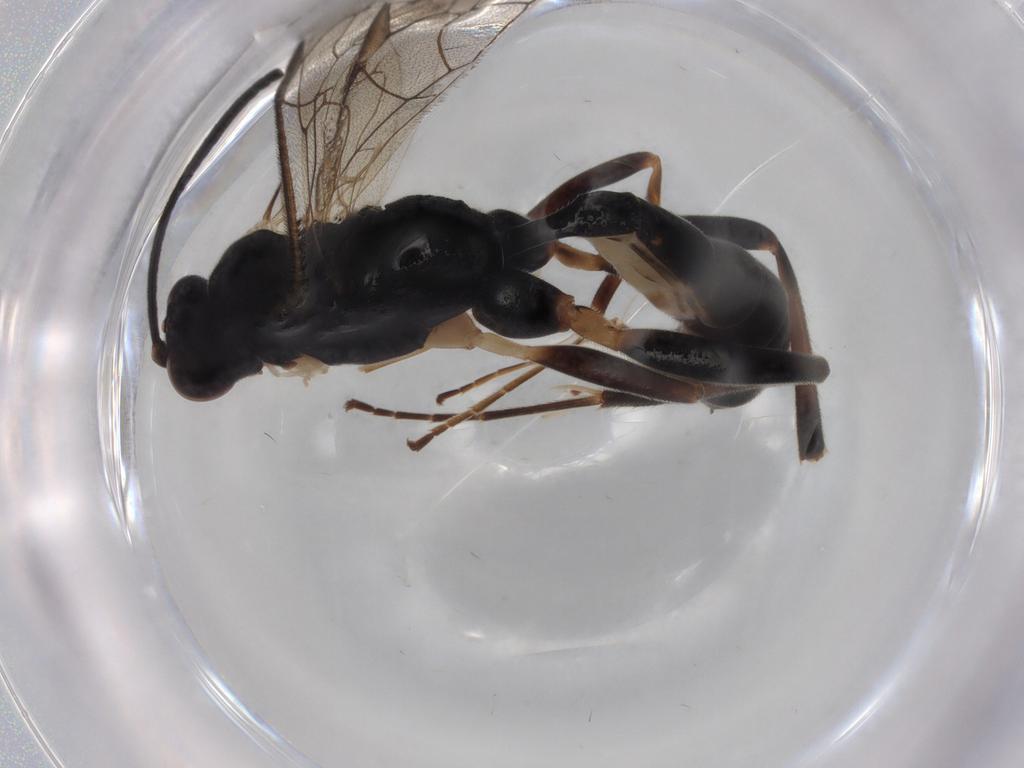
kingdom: Animalia
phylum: Arthropoda
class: Insecta
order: Hymenoptera
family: Ichneumonidae
